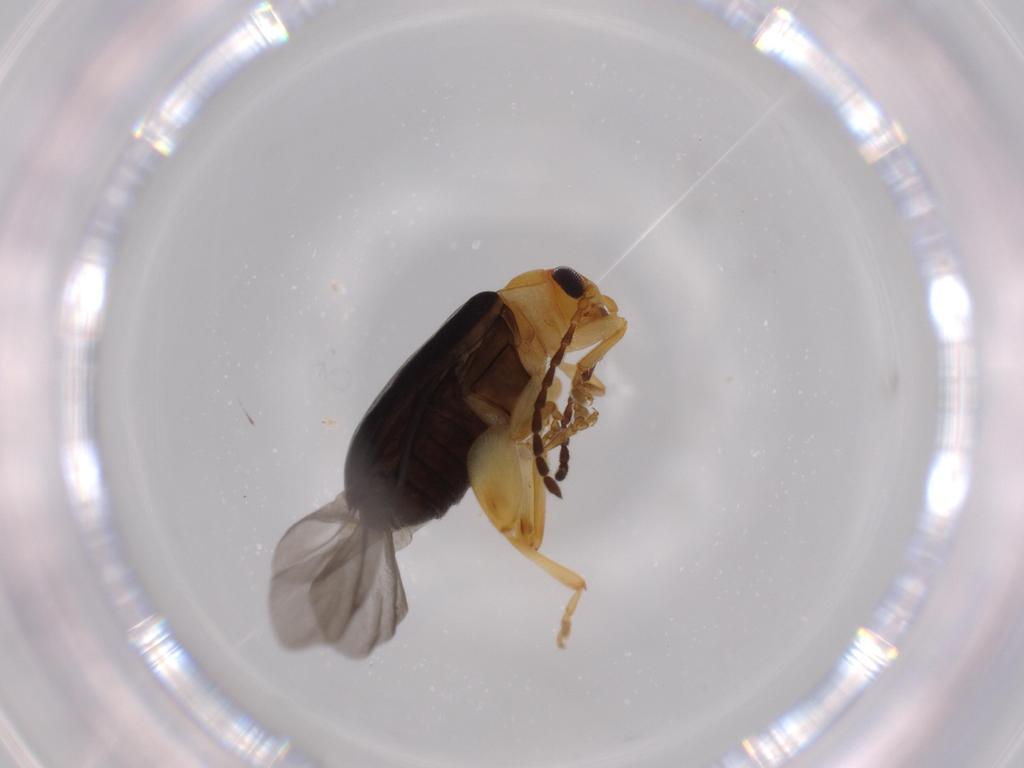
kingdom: Animalia
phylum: Arthropoda
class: Insecta
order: Coleoptera
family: Chrysomelidae
